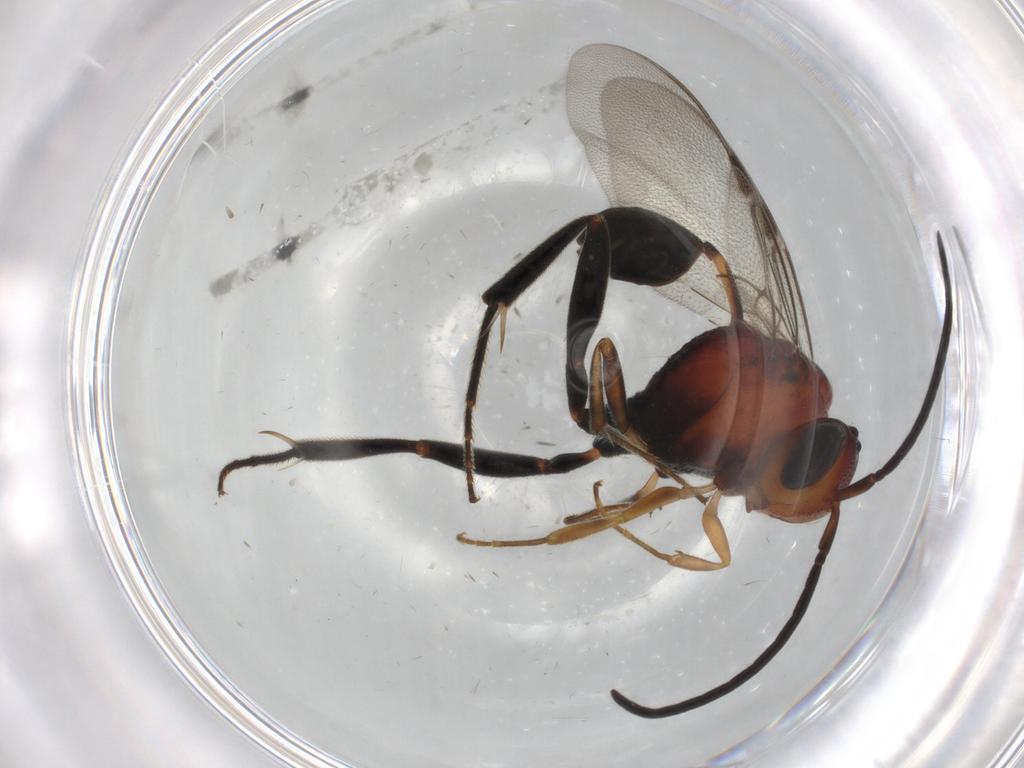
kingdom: Animalia
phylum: Arthropoda
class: Insecta
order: Hymenoptera
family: Evaniidae
